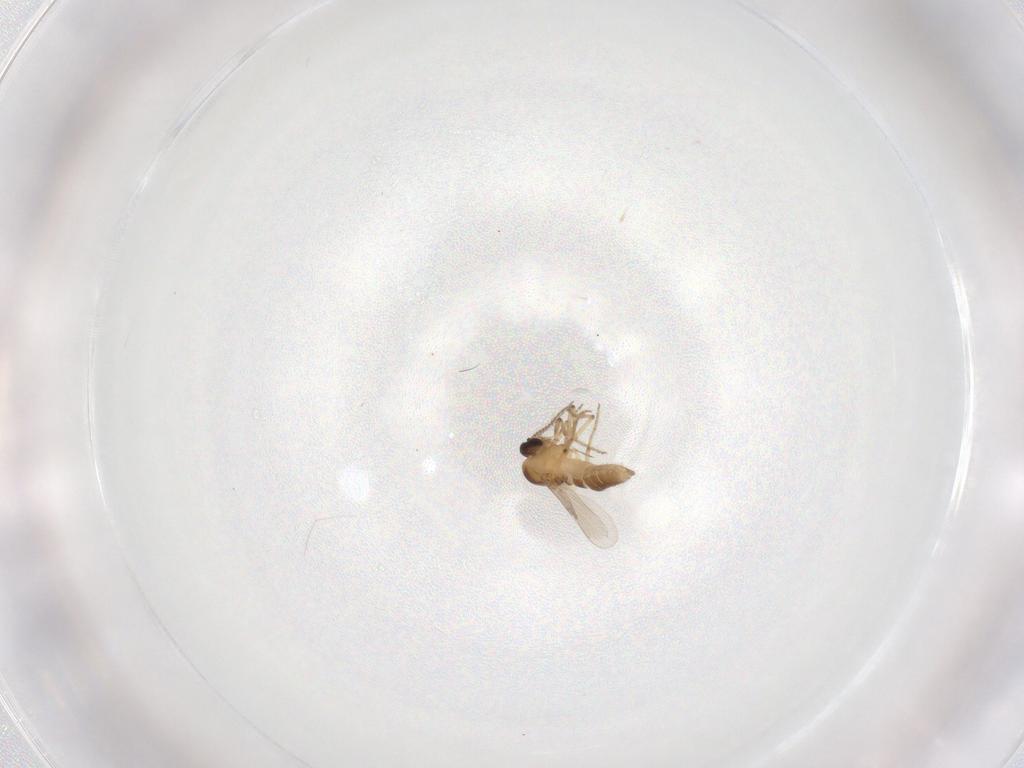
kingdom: Animalia
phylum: Arthropoda
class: Insecta
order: Diptera
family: Ceratopogonidae
